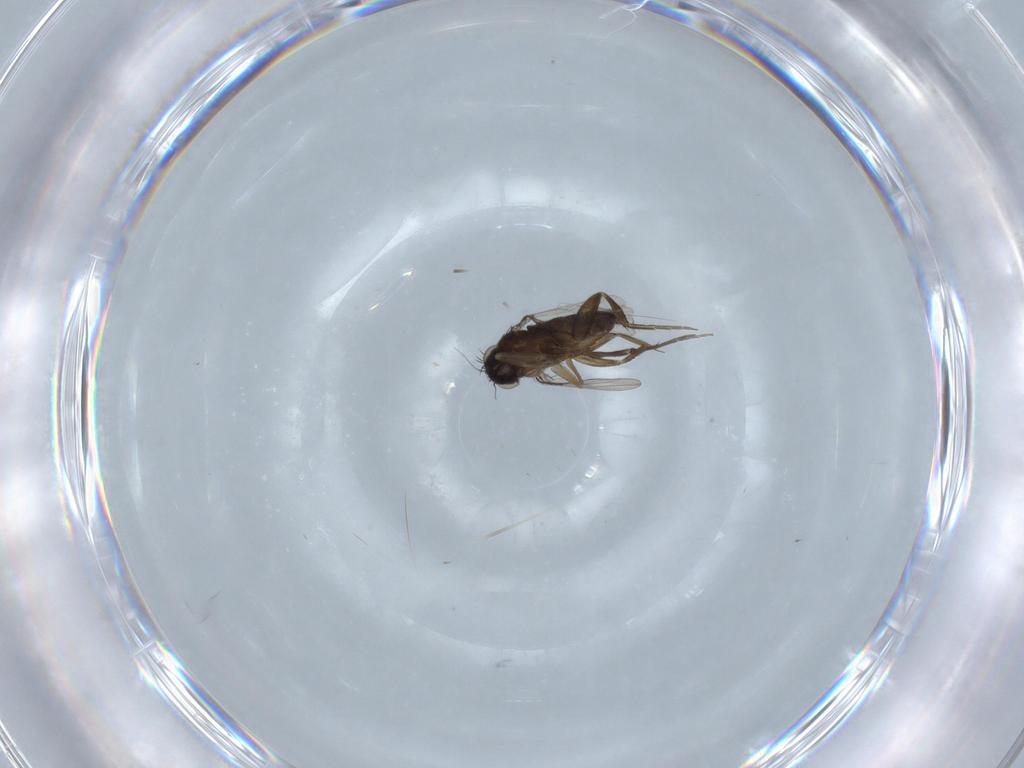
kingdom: Animalia
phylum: Arthropoda
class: Insecta
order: Diptera
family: Phoridae
